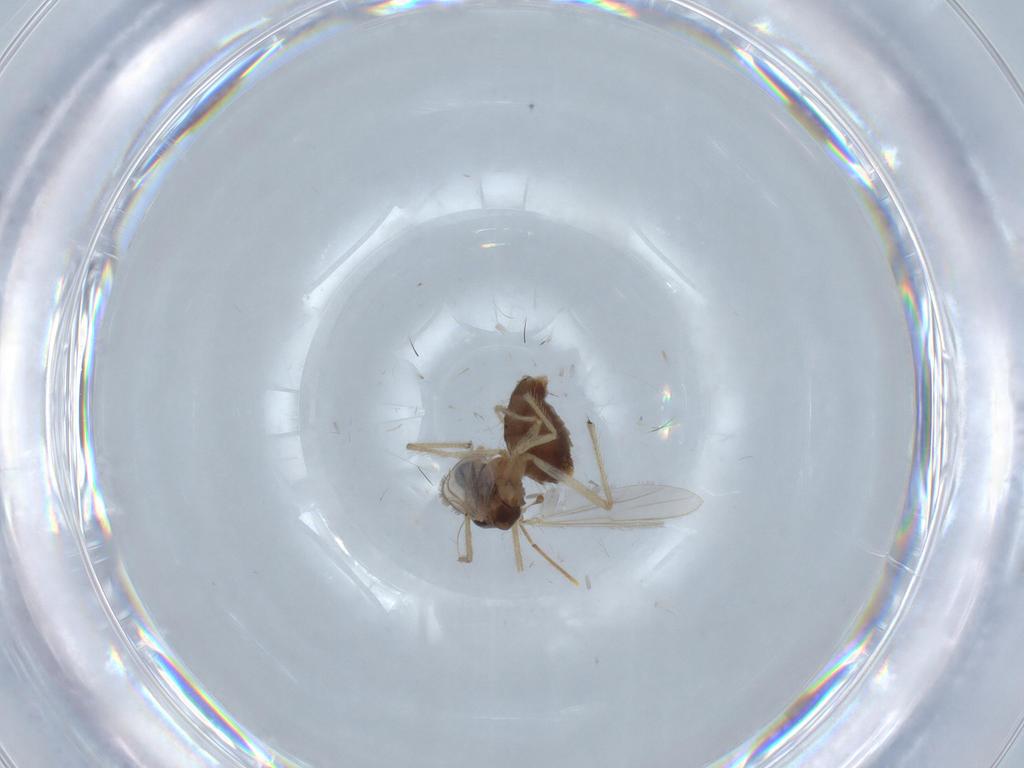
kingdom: Animalia
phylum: Arthropoda
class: Insecta
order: Diptera
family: Chironomidae
